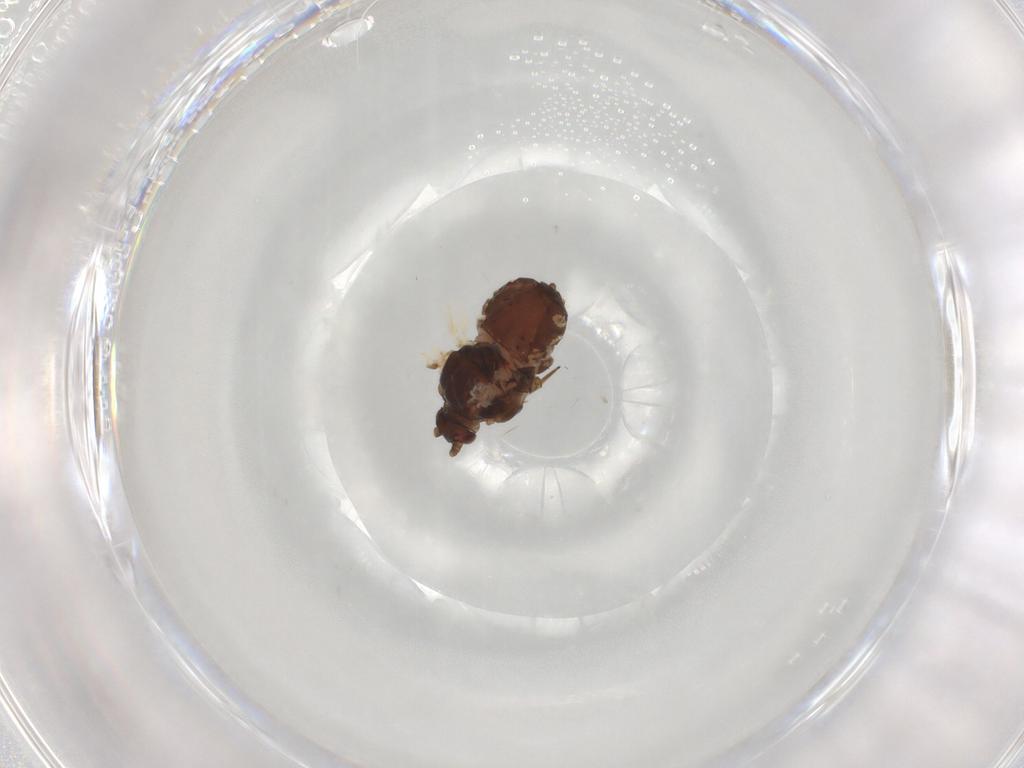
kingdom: Animalia
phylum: Arthropoda
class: Insecta
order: Hemiptera
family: Aphididae
